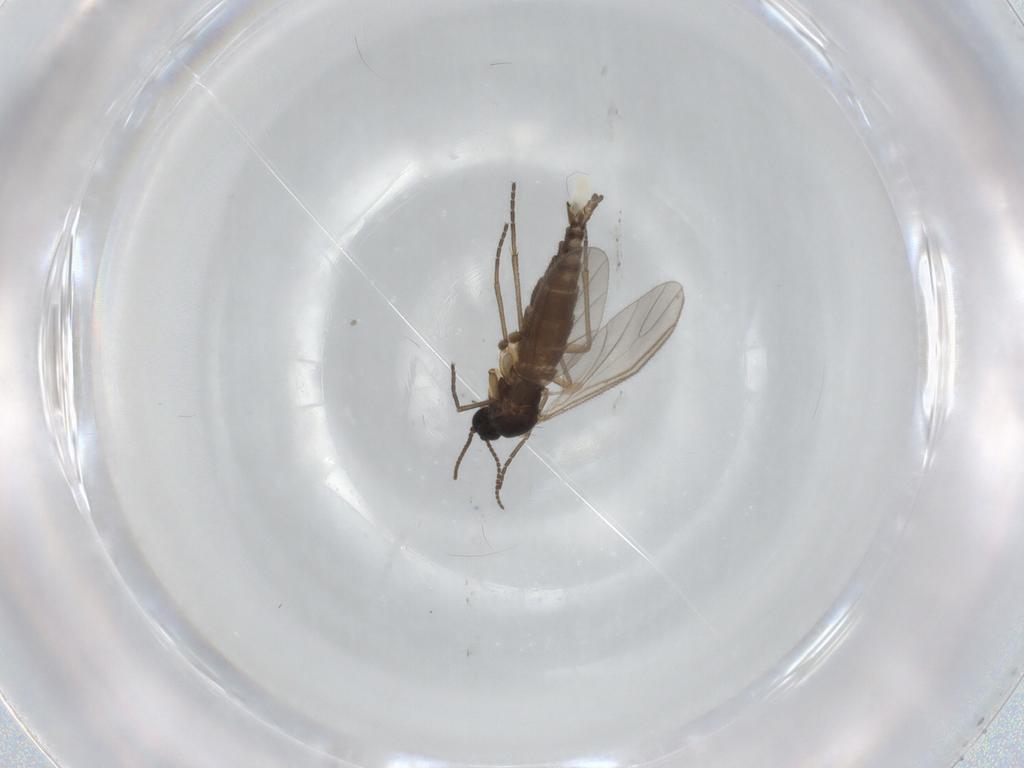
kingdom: Animalia
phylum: Arthropoda
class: Insecta
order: Diptera
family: Sciaridae
